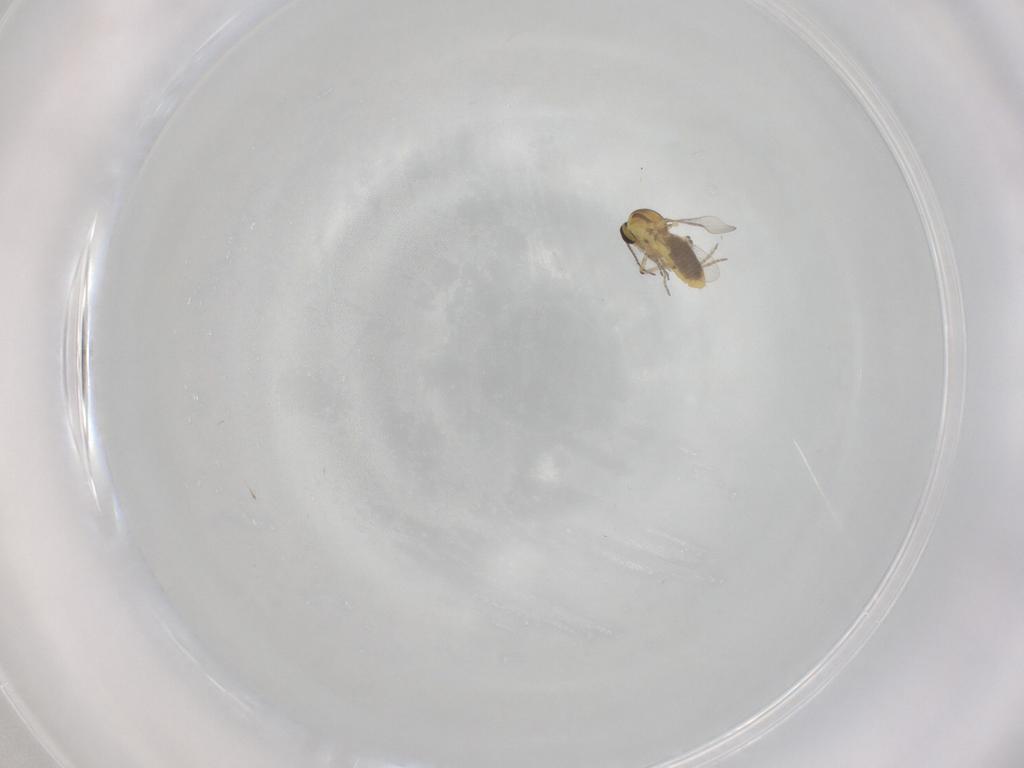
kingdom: Animalia
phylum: Arthropoda
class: Insecta
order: Diptera
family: Ceratopogonidae
